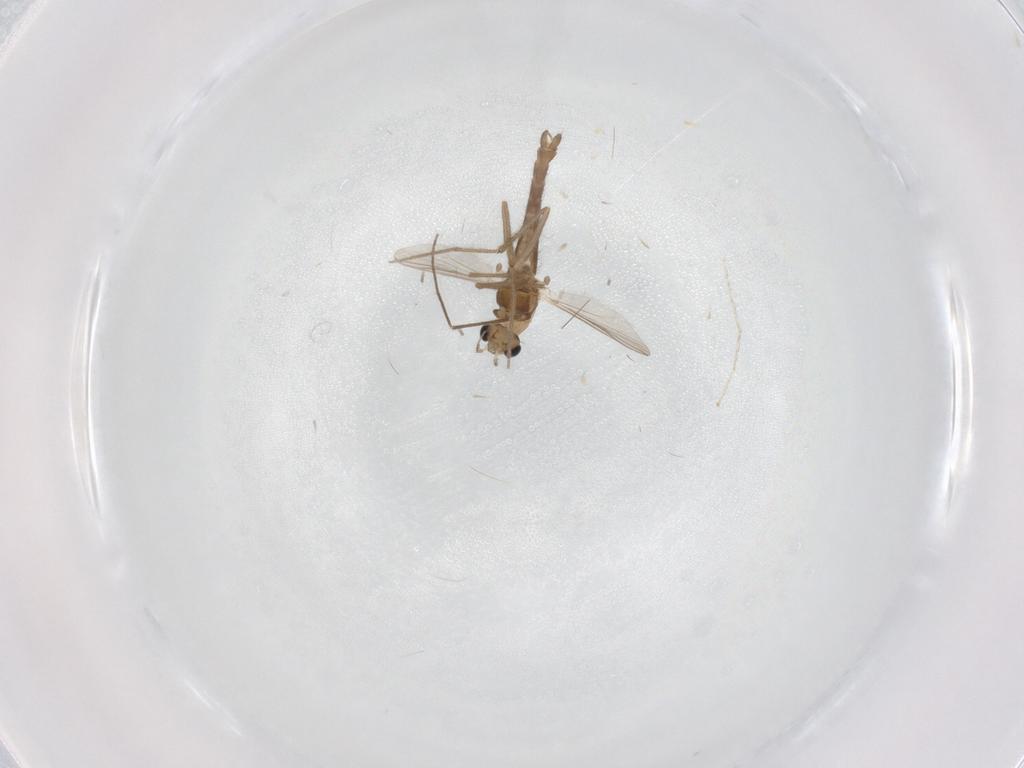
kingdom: Animalia
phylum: Arthropoda
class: Insecta
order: Diptera
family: Chironomidae
